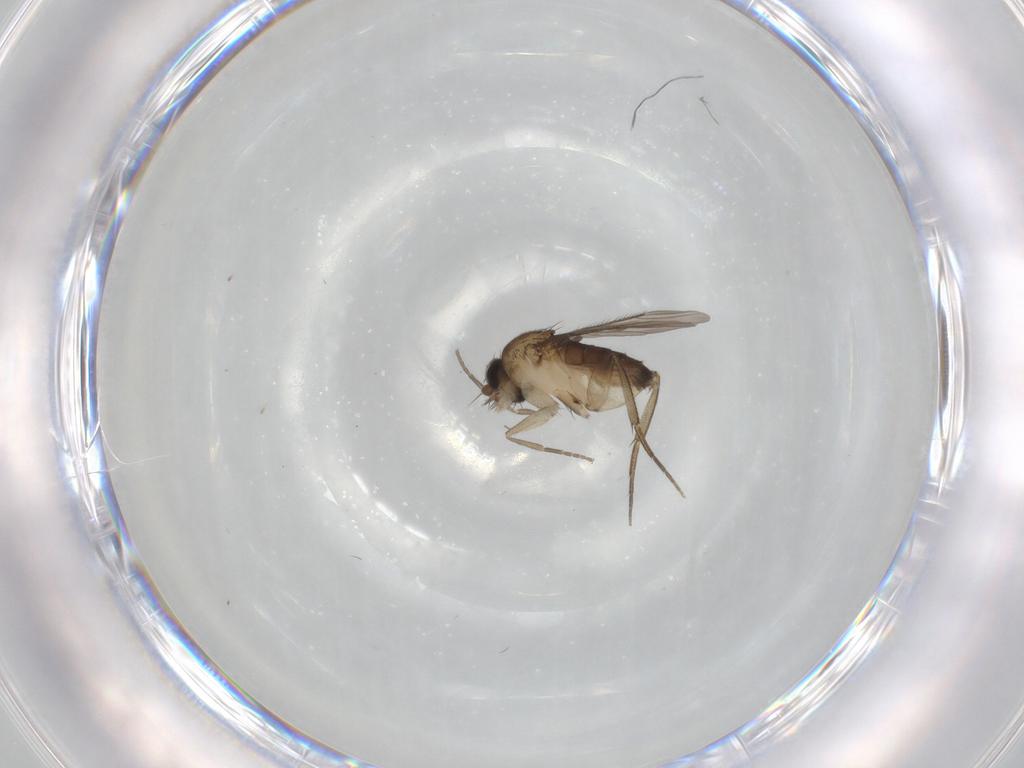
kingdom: Animalia
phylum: Arthropoda
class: Insecta
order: Diptera
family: Phoridae
